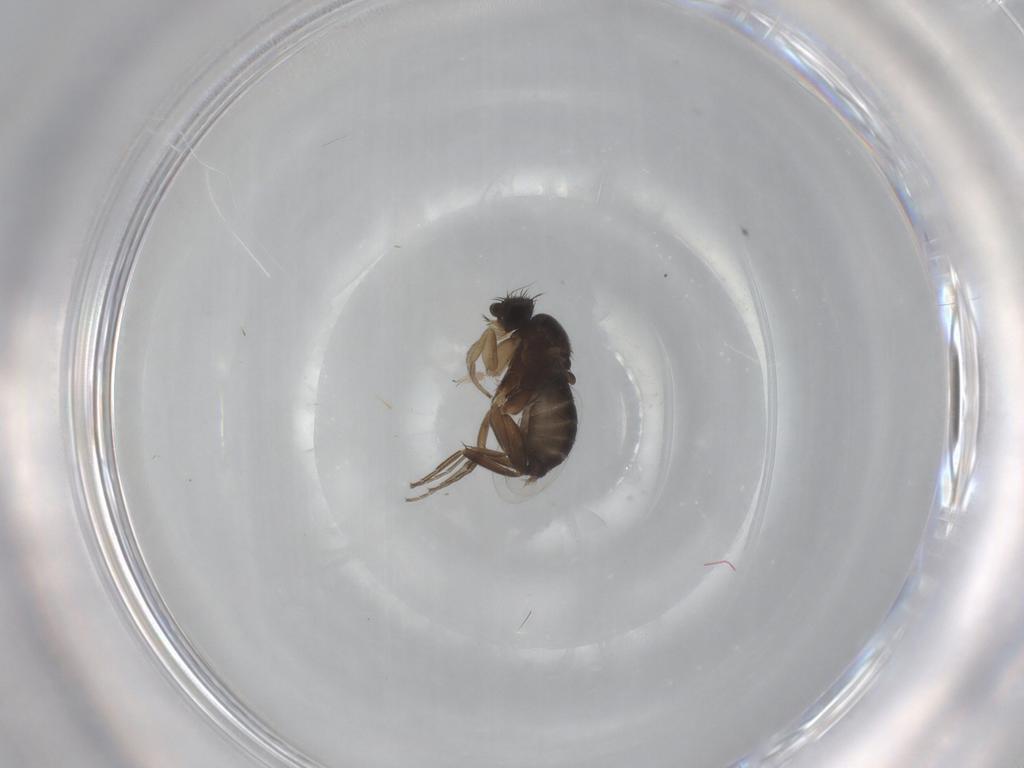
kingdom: Animalia
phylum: Arthropoda
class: Insecta
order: Diptera
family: Phoridae
